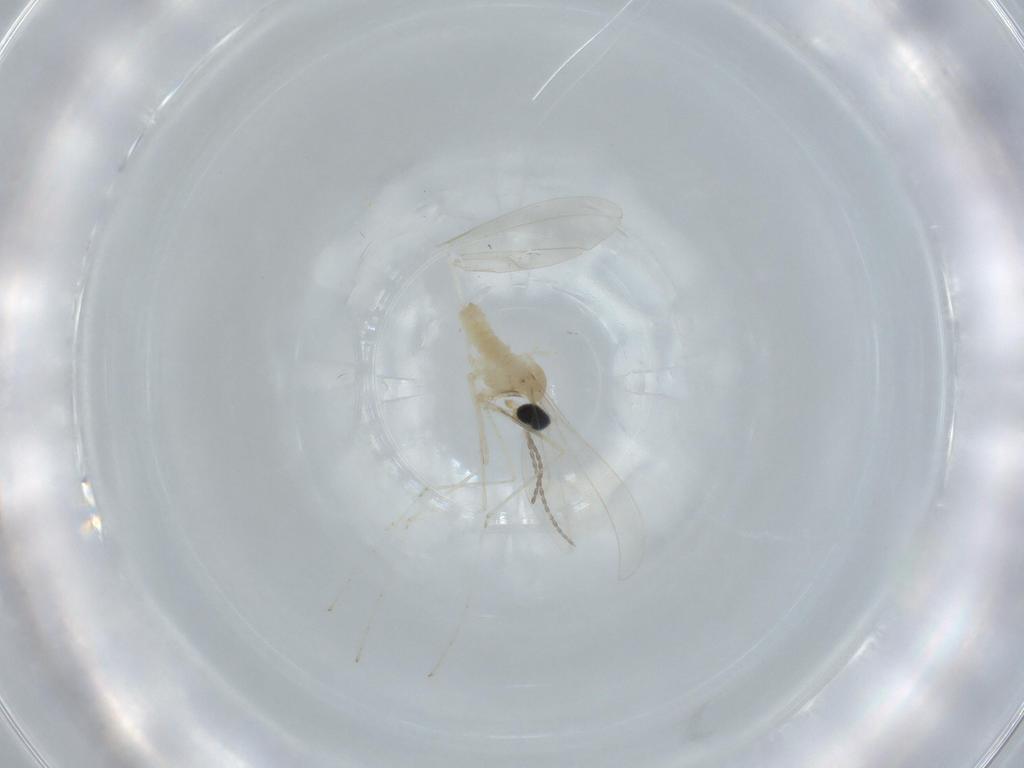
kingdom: Animalia
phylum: Arthropoda
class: Insecta
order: Diptera
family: Cecidomyiidae
